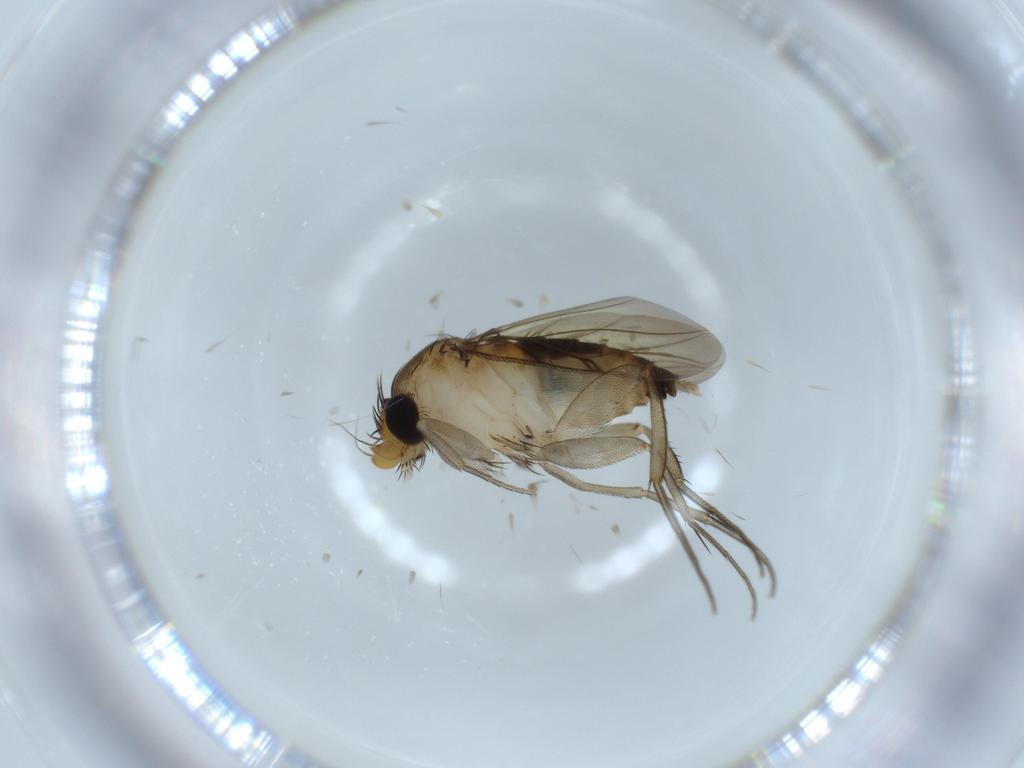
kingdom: Animalia
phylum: Arthropoda
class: Insecta
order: Diptera
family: Phoridae
